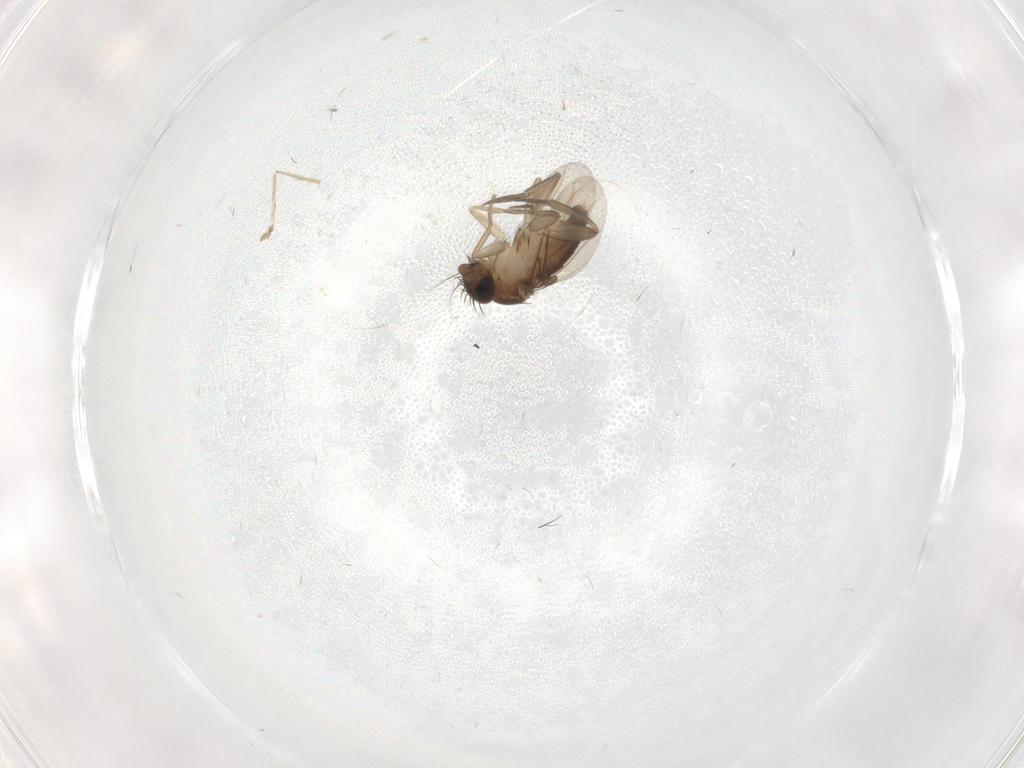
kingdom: Animalia
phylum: Arthropoda
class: Insecta
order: Diptera
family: Phoridae
